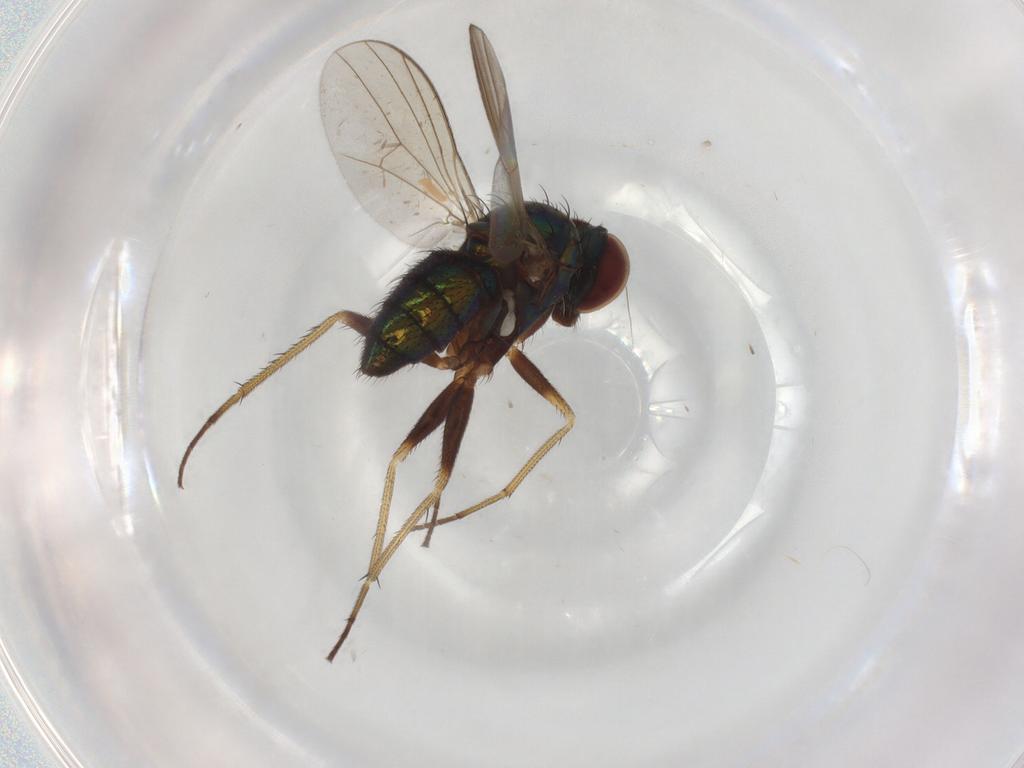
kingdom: Animalia
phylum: Arthropoda
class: Insecta
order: Diptera
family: Dolichopodidae
